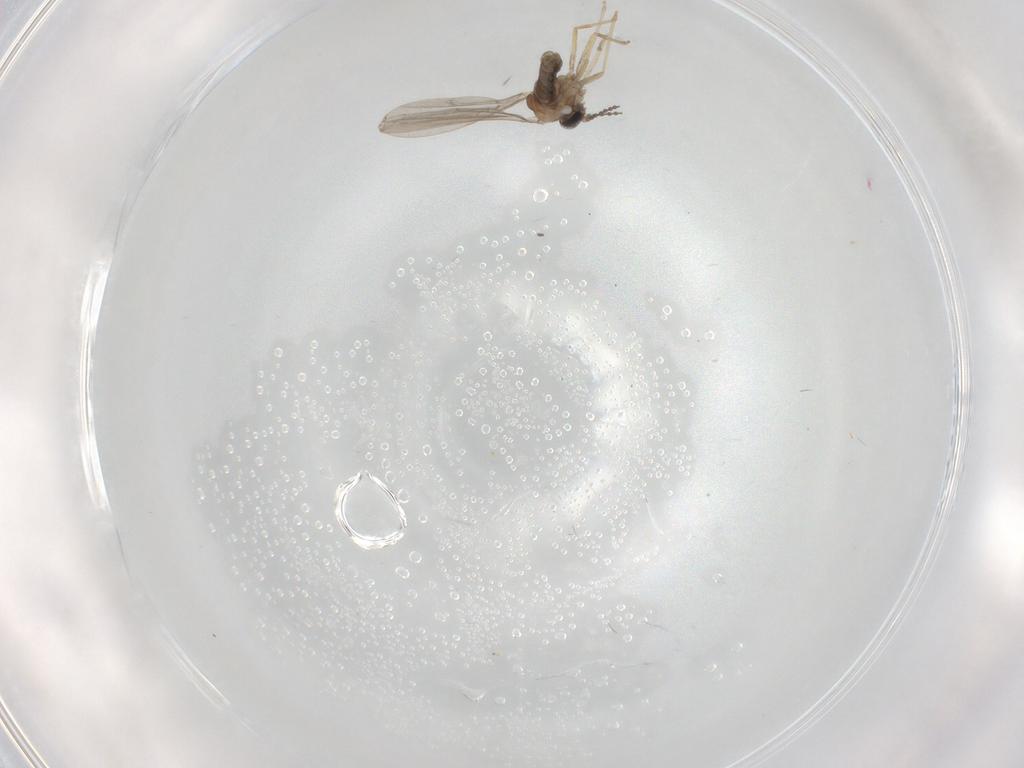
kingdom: Animalia
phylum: Arthropoda
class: Insecta
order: Diptera
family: Cecidomyiidae
